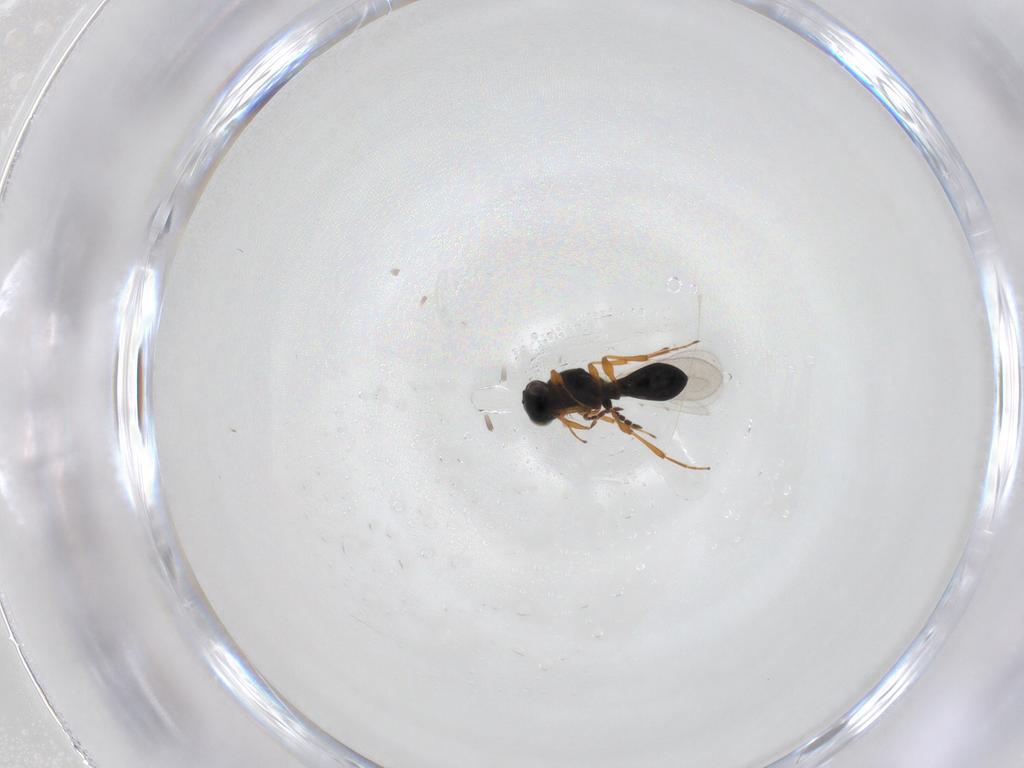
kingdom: Animalia
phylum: Arthropoda
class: Insecta
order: Hymenoptera
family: Platygastridae
